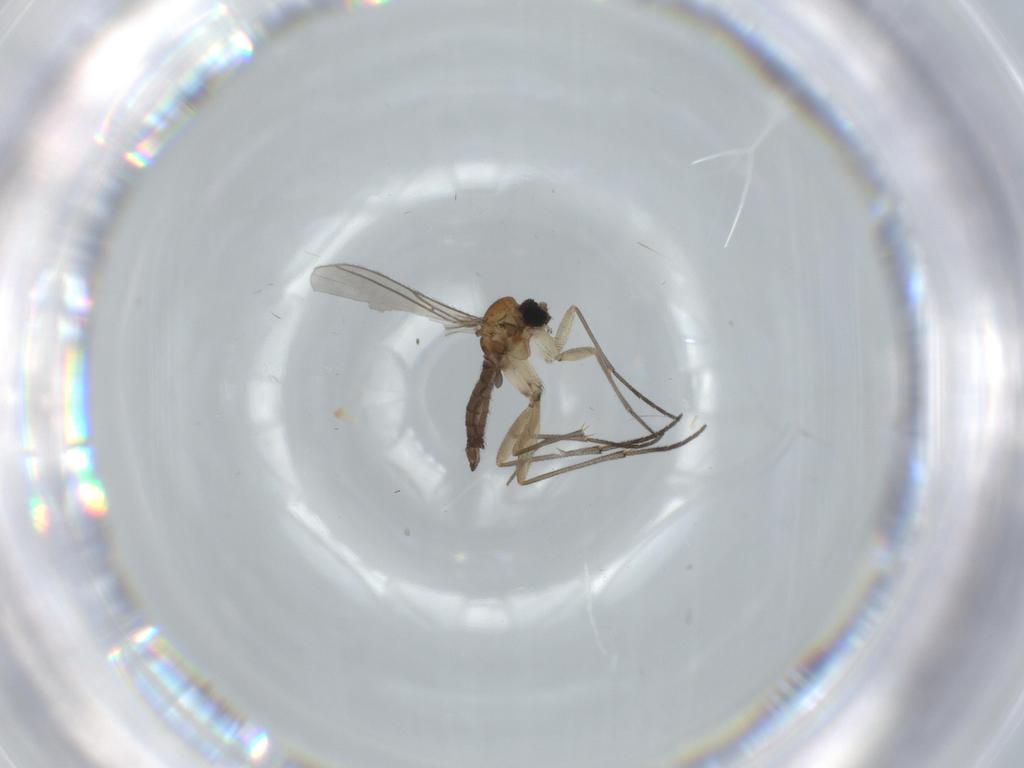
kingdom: Animalia
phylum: Arthropoda
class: Insecta
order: Diptera
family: Sciaridae
